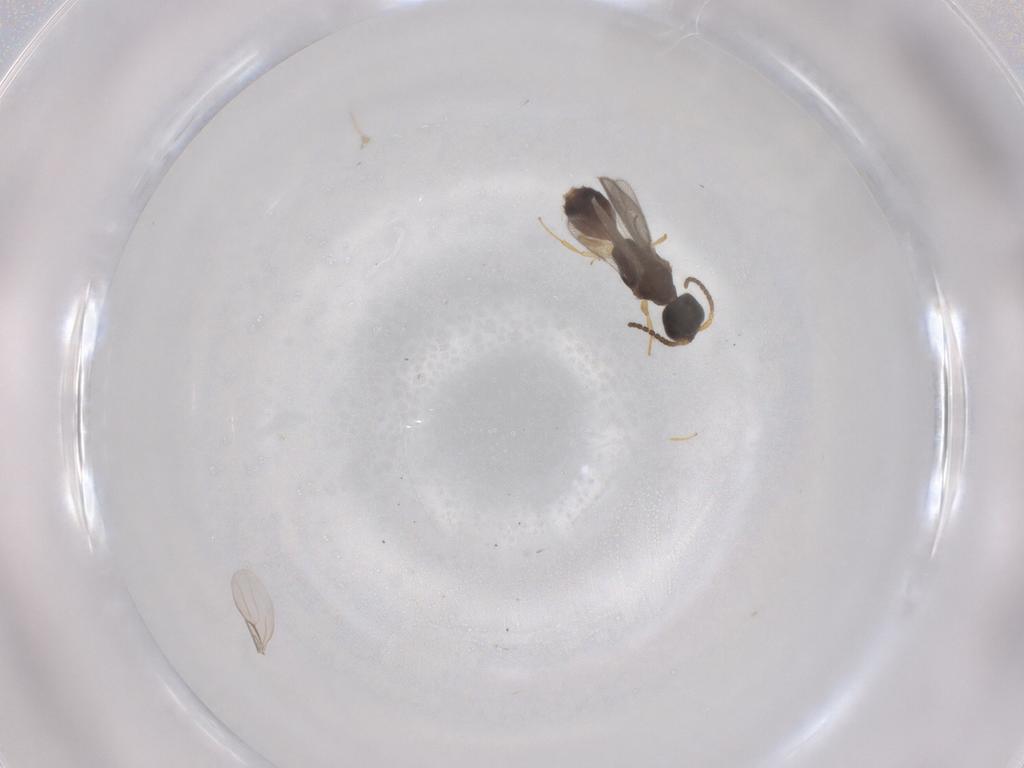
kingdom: Animalia
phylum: Arthropoda
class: Insecta
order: Hymenoptera
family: Bethylidae
